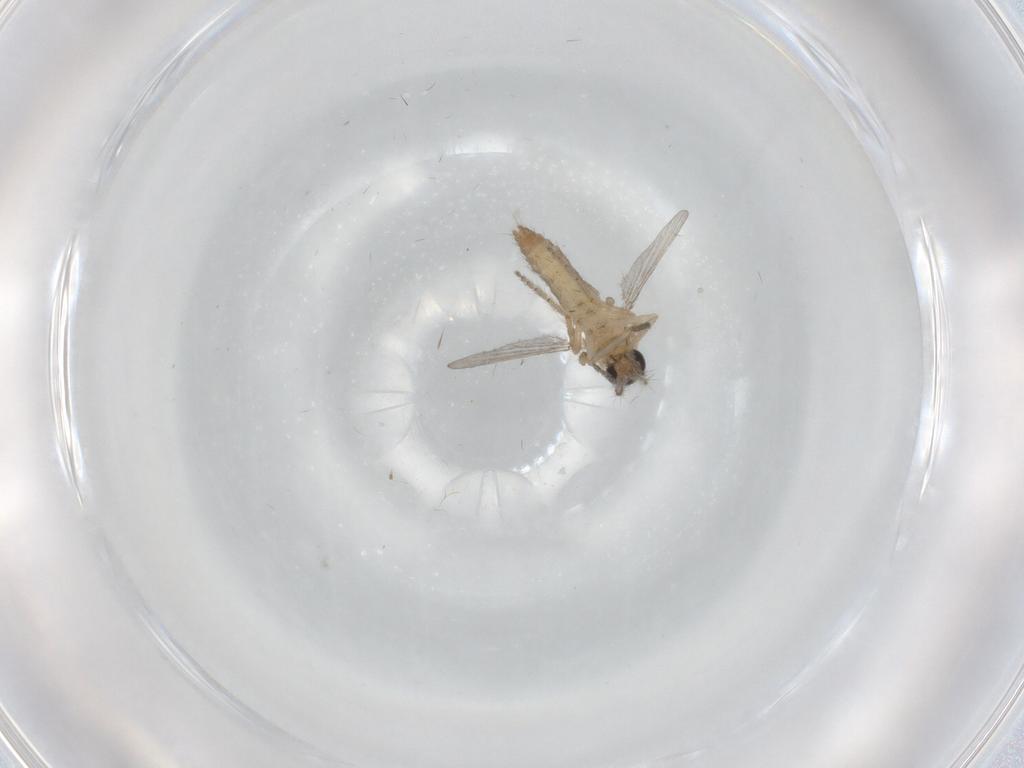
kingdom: Animalia
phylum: Arthropoda
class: Insecta
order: Diptera
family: Ceratopogonidae
